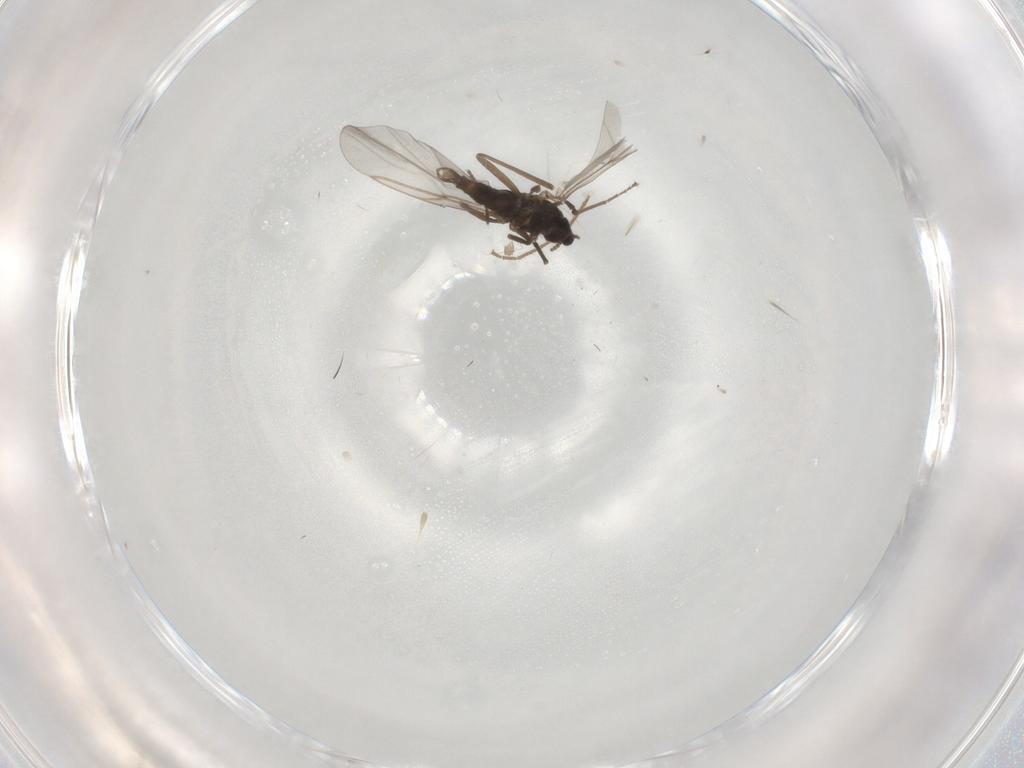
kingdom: Animalia
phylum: Arthropoda
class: Insecta
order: Diptera
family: Sciaridae
